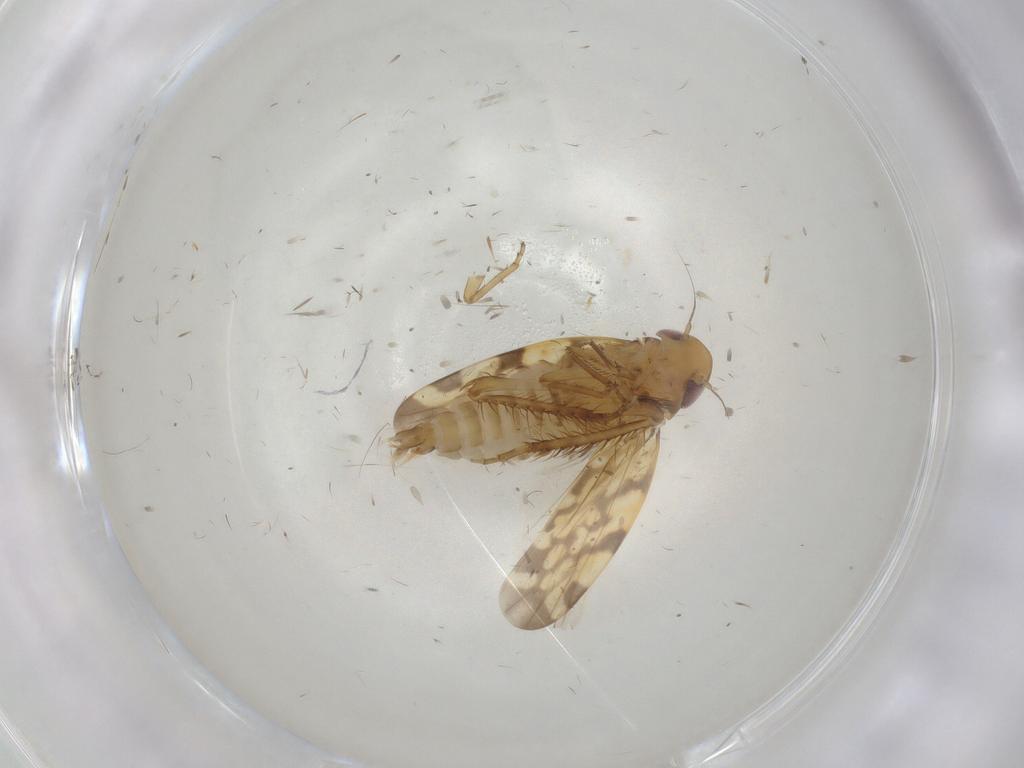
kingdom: Animalia
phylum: Arthropoda
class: Insecta
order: Hemiptera
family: Cicadellidae
